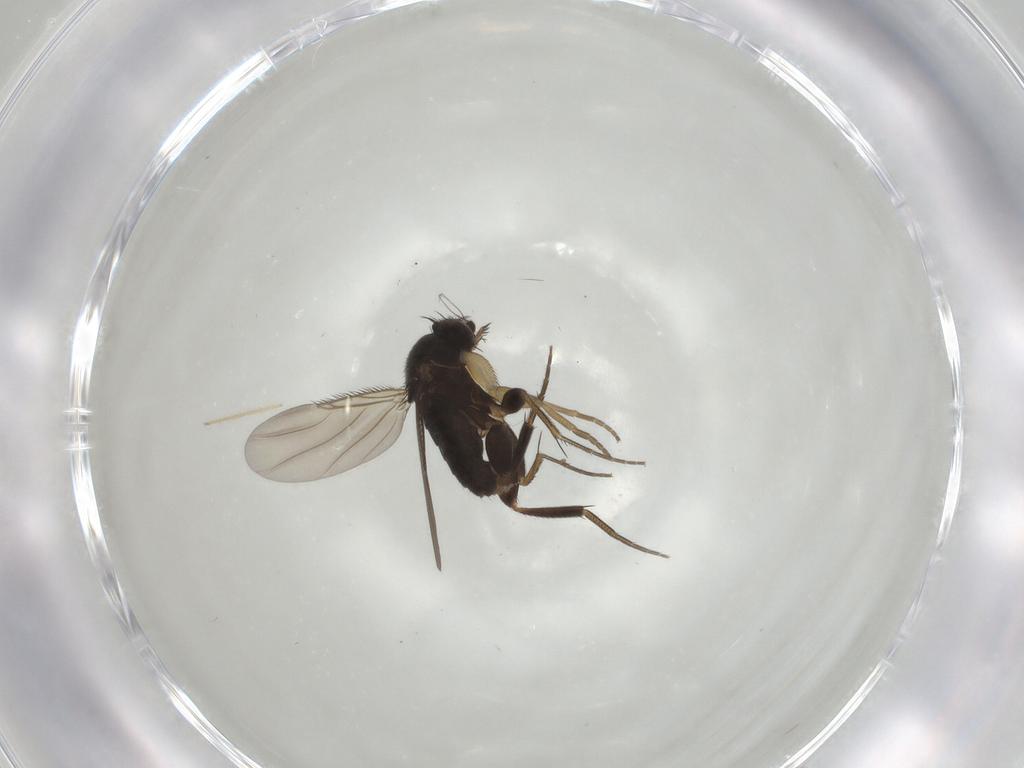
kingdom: Animalia
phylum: Arthropoda
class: Insecta
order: Diptera
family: Phoridae
